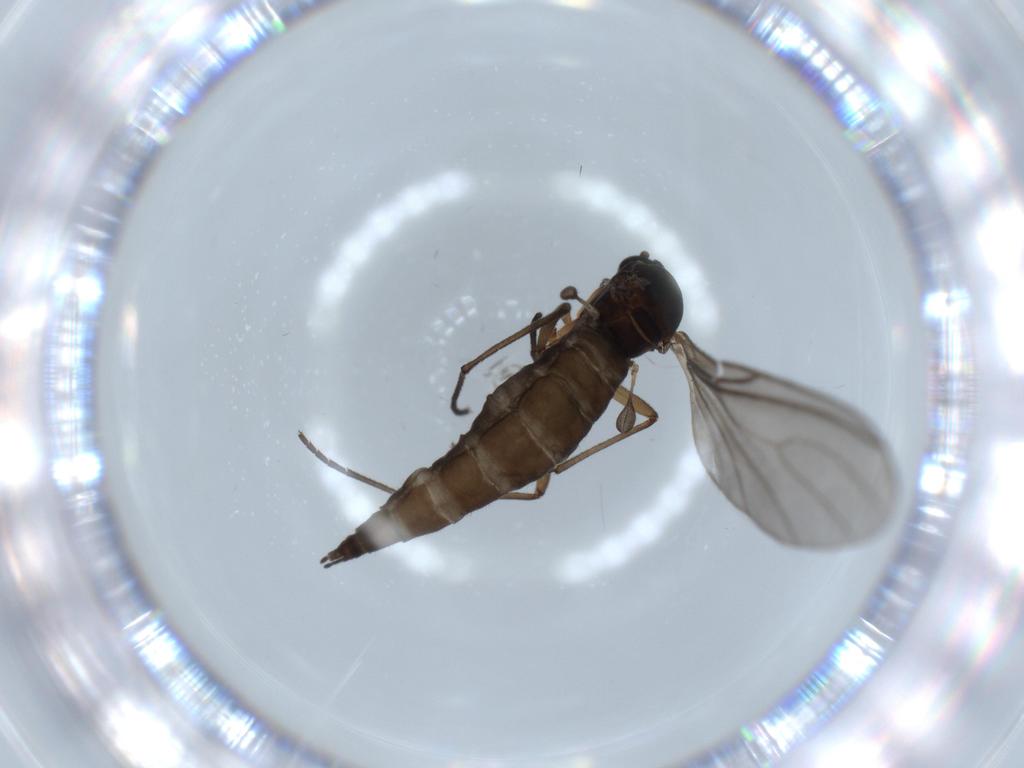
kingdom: Animalia
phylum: Arthropoda
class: Insecta
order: Diptera
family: Sciaridae
